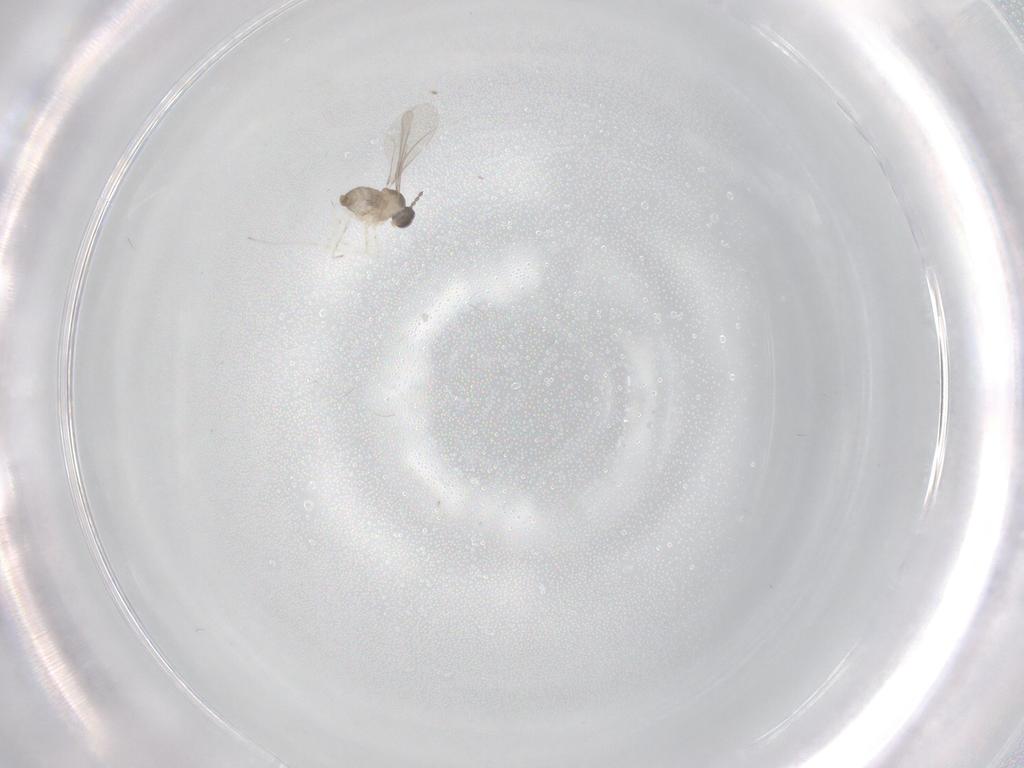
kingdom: Animalia
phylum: Arthropoda
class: Insecta
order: Diptera
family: Cecidomyiidae
